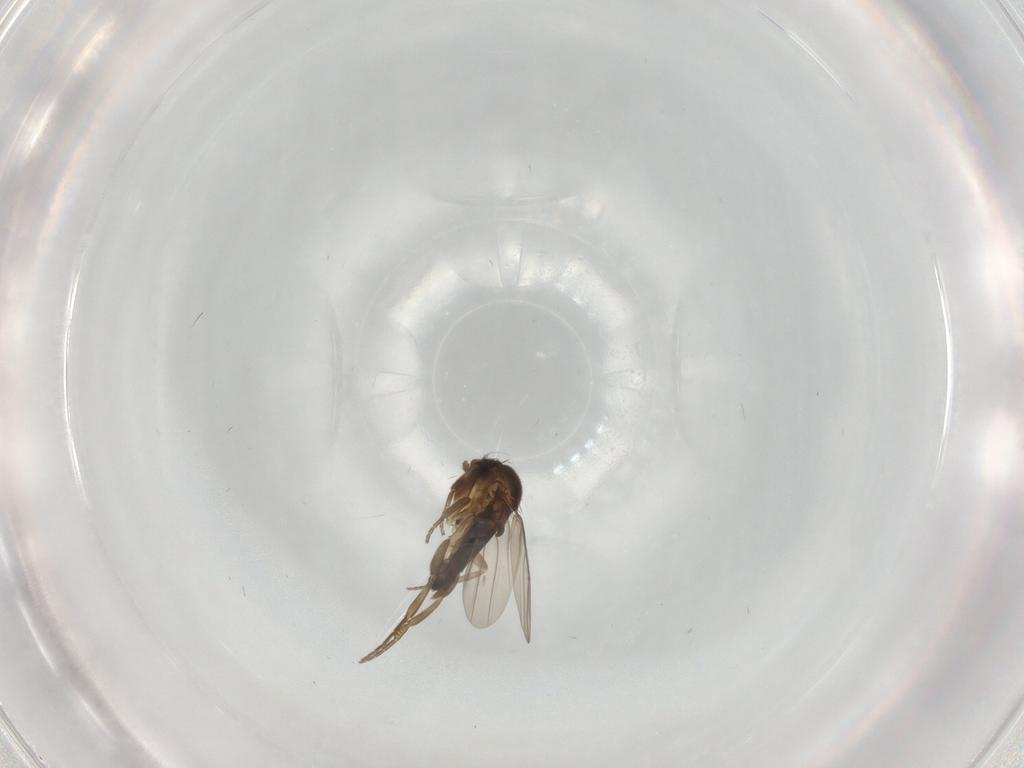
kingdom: Animalia
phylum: Arthropoda
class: Insecta
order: Diptera
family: Phoridae
